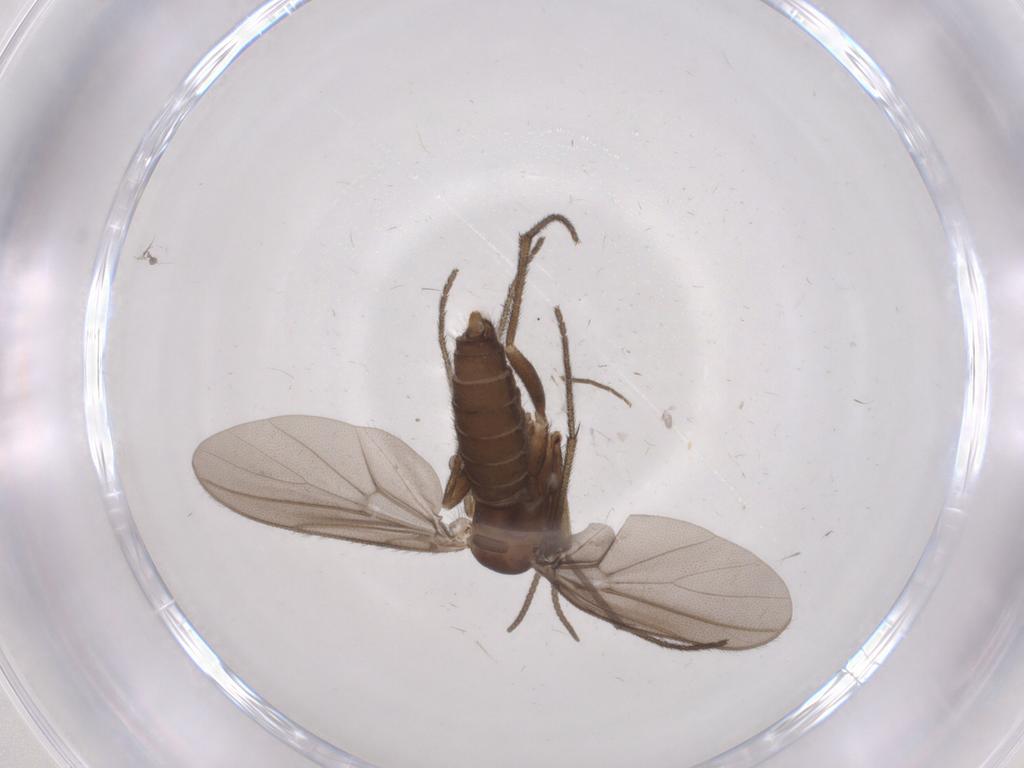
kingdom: Animalia
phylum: Arthropoda
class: Insecta
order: Diptera
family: Diadocidiidae
